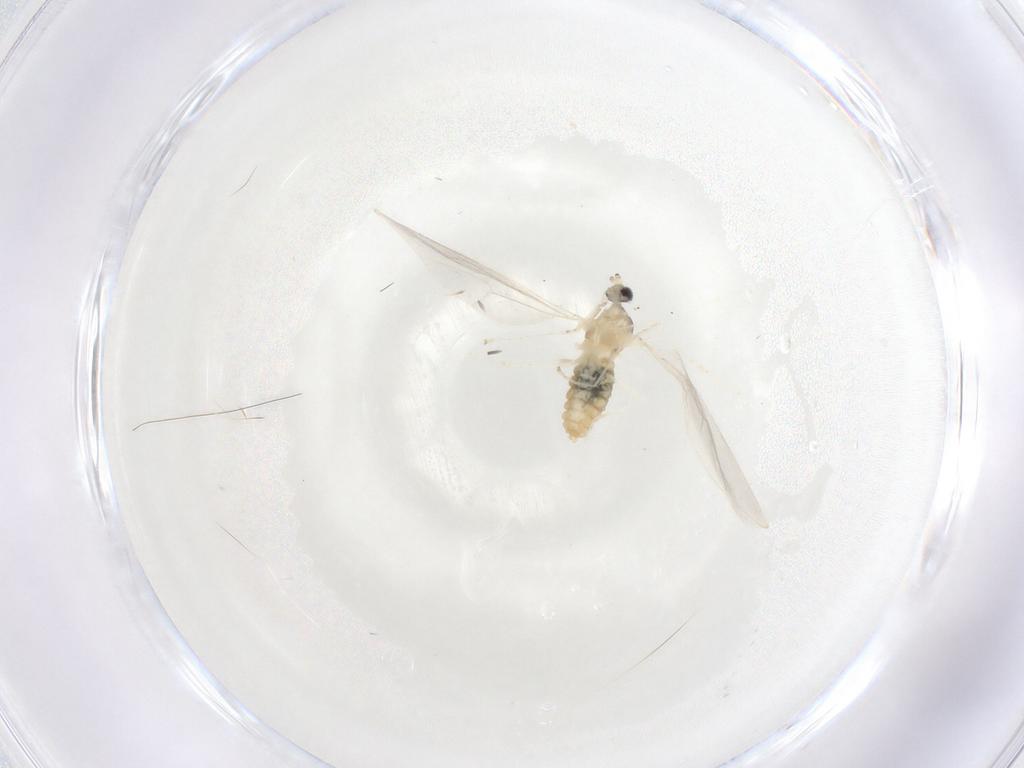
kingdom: Animalia
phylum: Arthropoda
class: Insecta
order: Diptera
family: Cecidomyiidae
